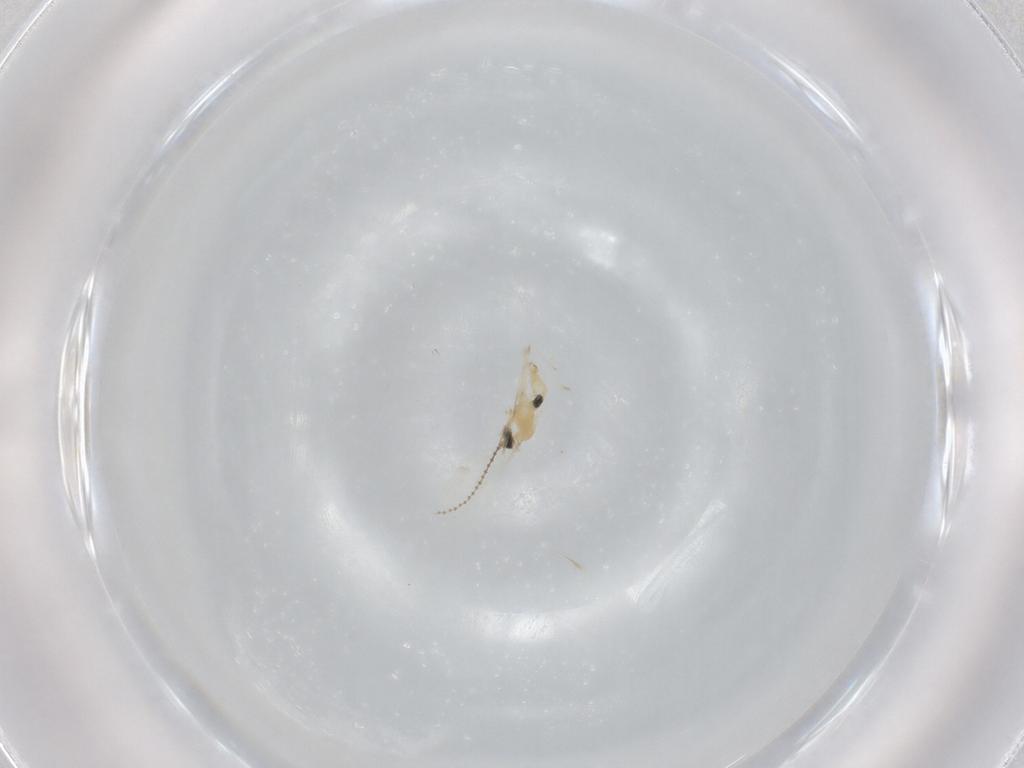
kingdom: Animalia
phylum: Arthropoda
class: Insecta
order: Diptera
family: Cecidomyiidae
